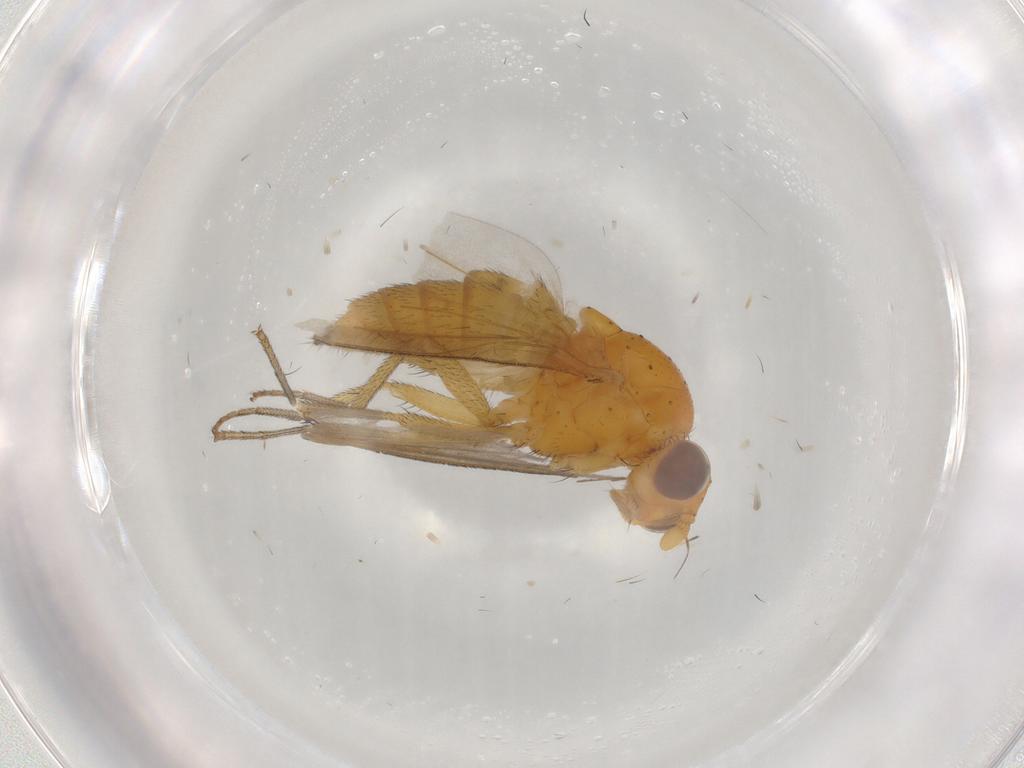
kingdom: Animalia
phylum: Arthropoda
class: Insecta
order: Diptera
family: Lauxaniidae
